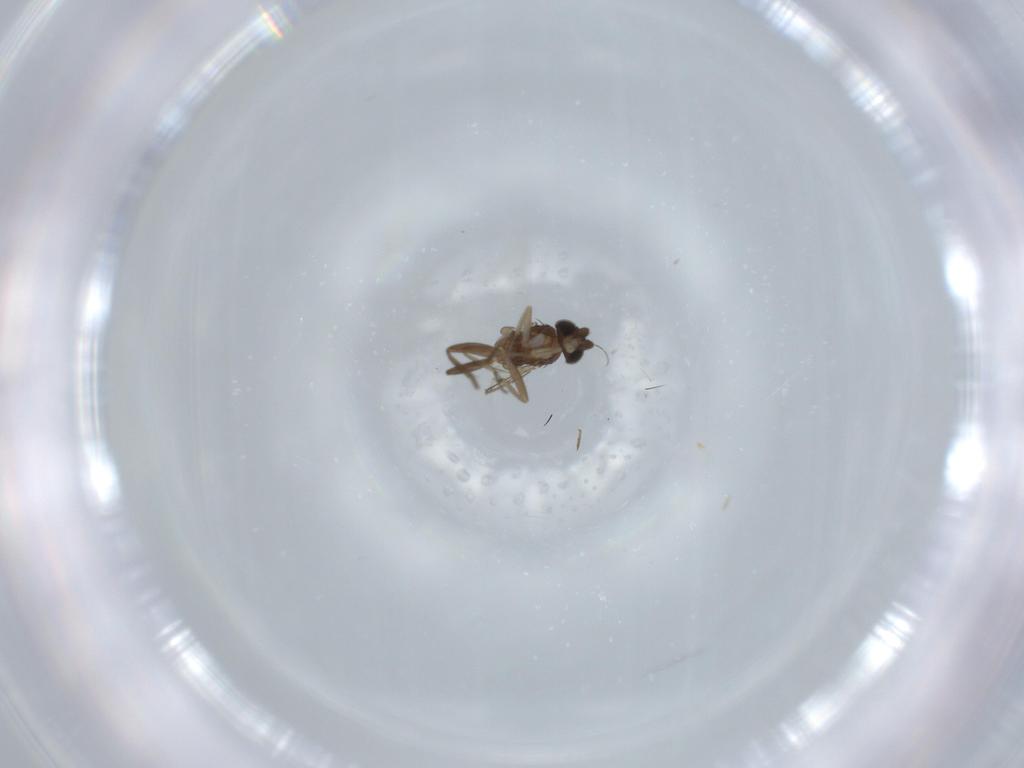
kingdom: Animalia
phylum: Arthropoda
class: Insecta
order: Diptera
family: Phoridae
